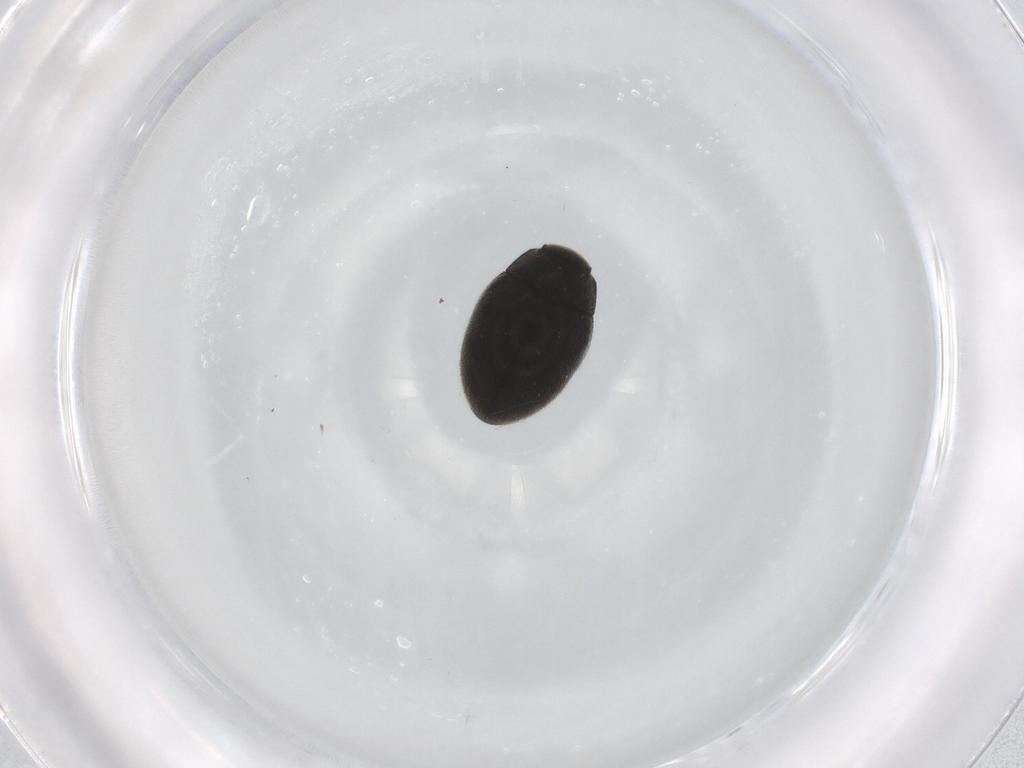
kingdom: Animalia
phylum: Arthropoda
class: Insecta
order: Coleoptera
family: Limnichidae
